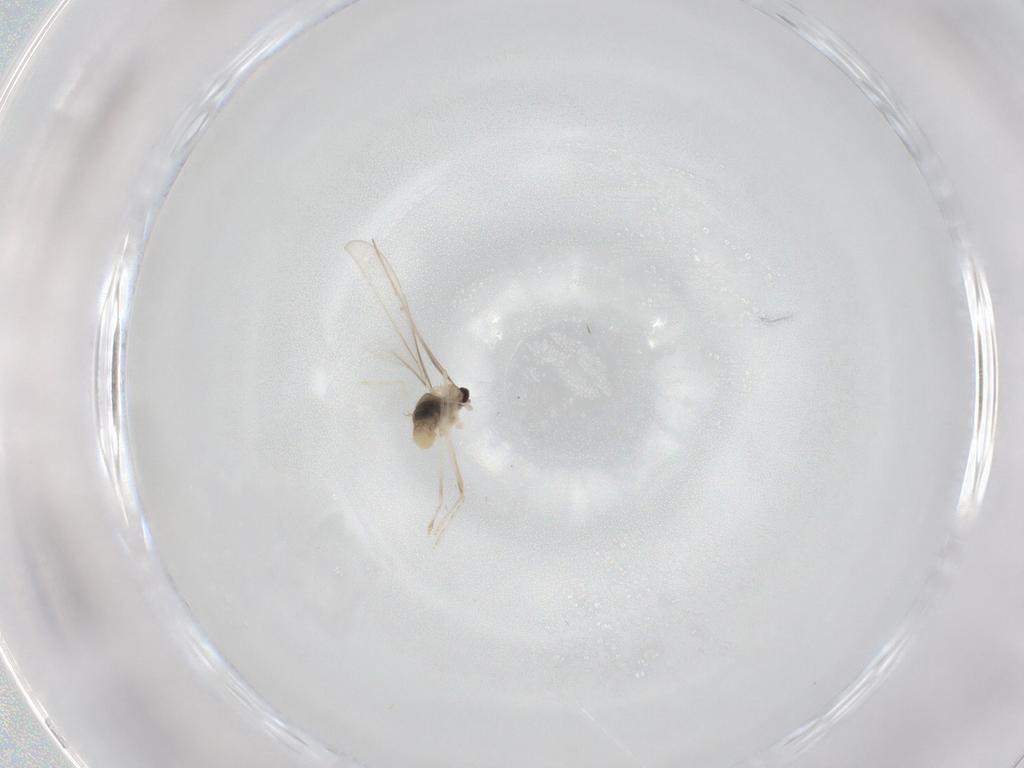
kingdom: Animalia
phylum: Arthropoda
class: Insecta
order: Diptera
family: Cecidomyiidae
